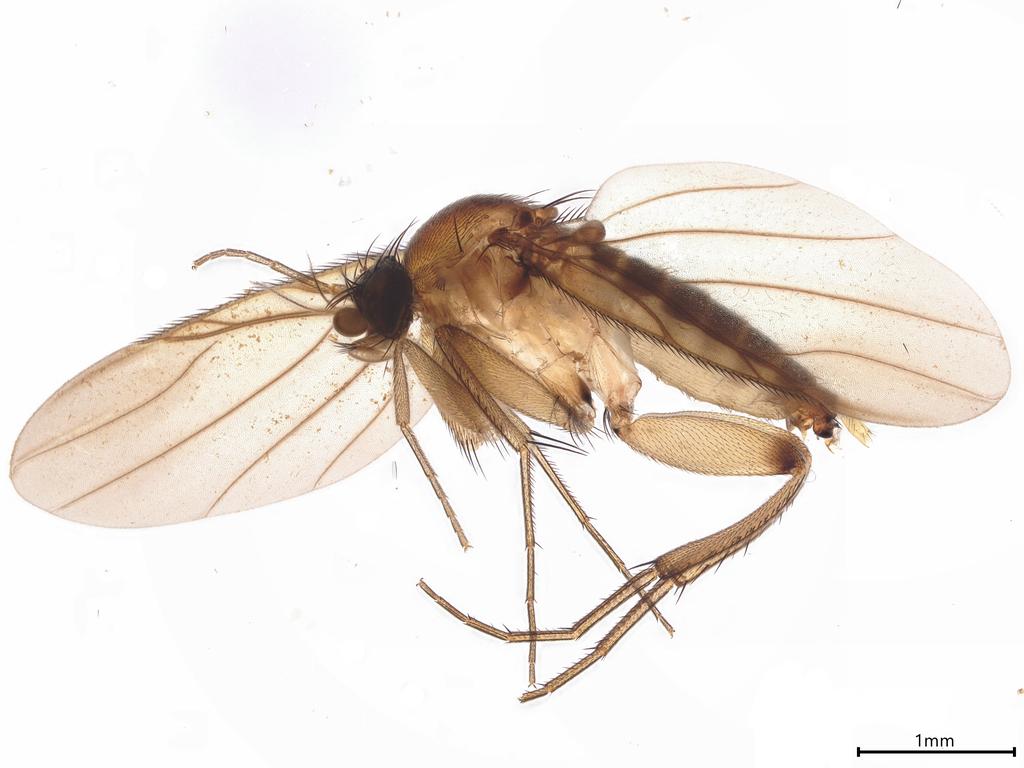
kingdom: Animalia
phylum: Arthropoda
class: Insecta
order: Diptera
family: Phoridae
